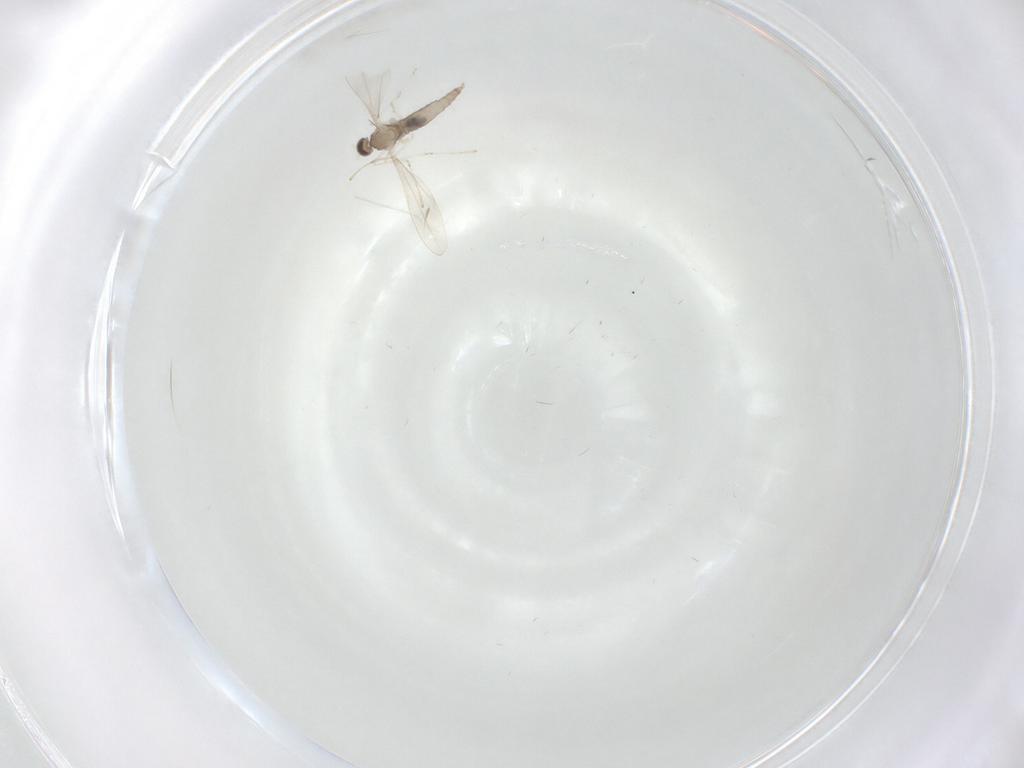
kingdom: Animalia
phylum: Arthropoda
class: Insecta
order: Diptera
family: Cecidomyiidae
